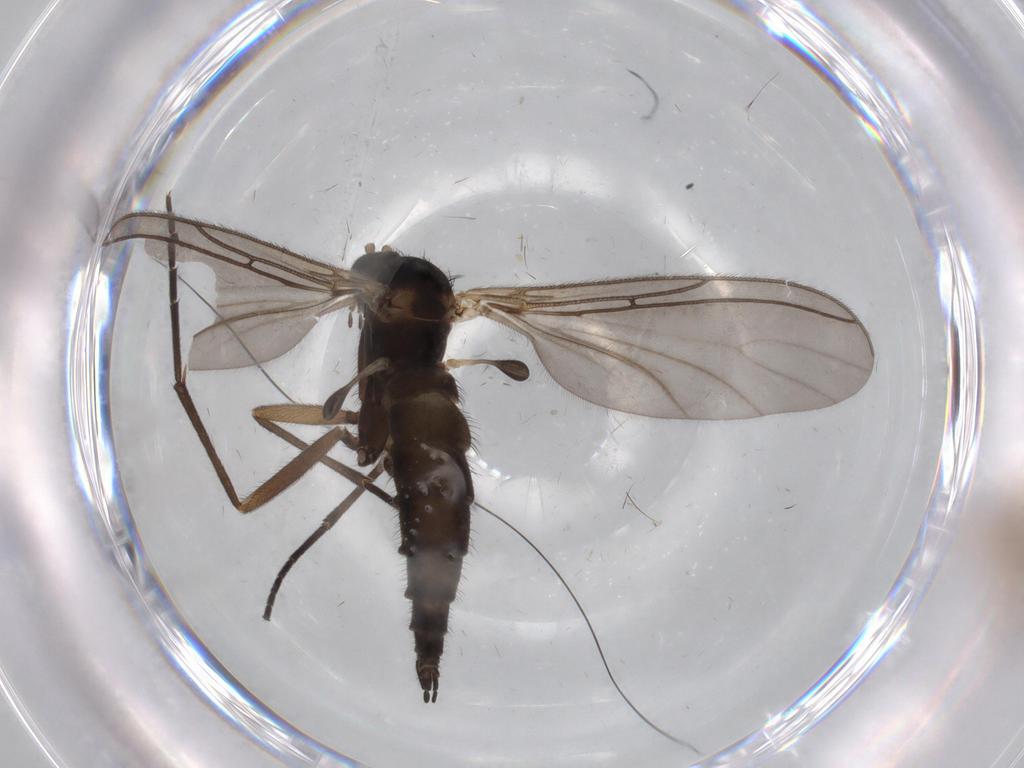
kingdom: Animalia
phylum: Arthropoda
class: Insecta
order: Diptera
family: Sciaridae
